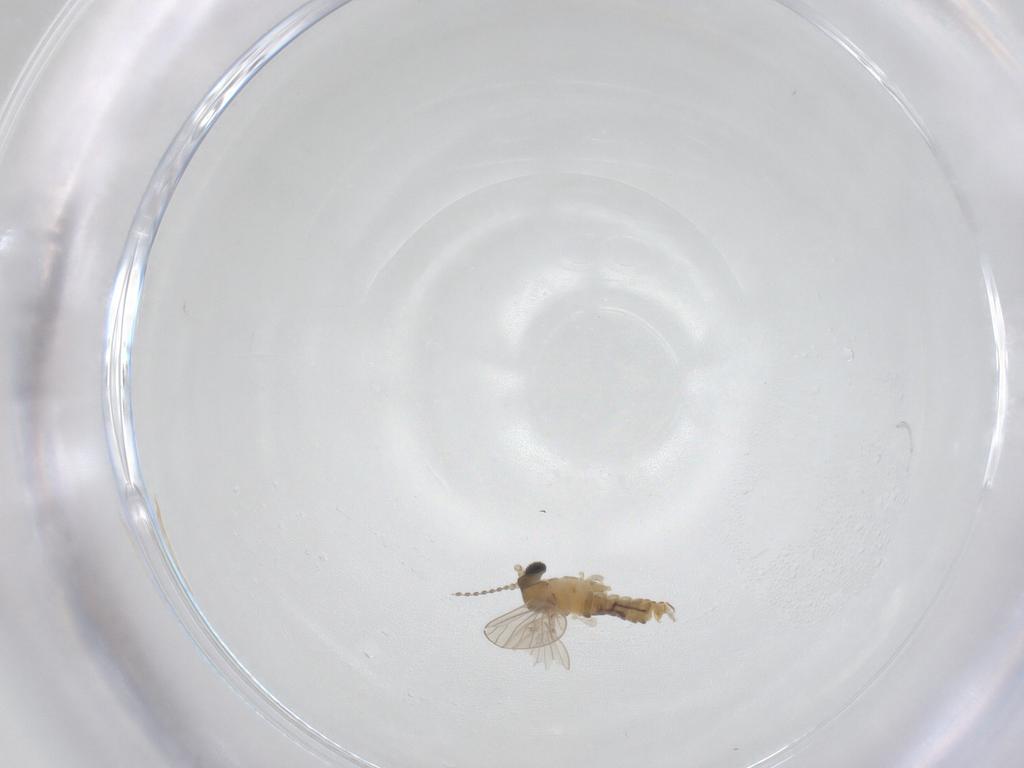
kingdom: Animalia
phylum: Arthropoda
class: Insecta
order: Diptera
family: Psychodidae
